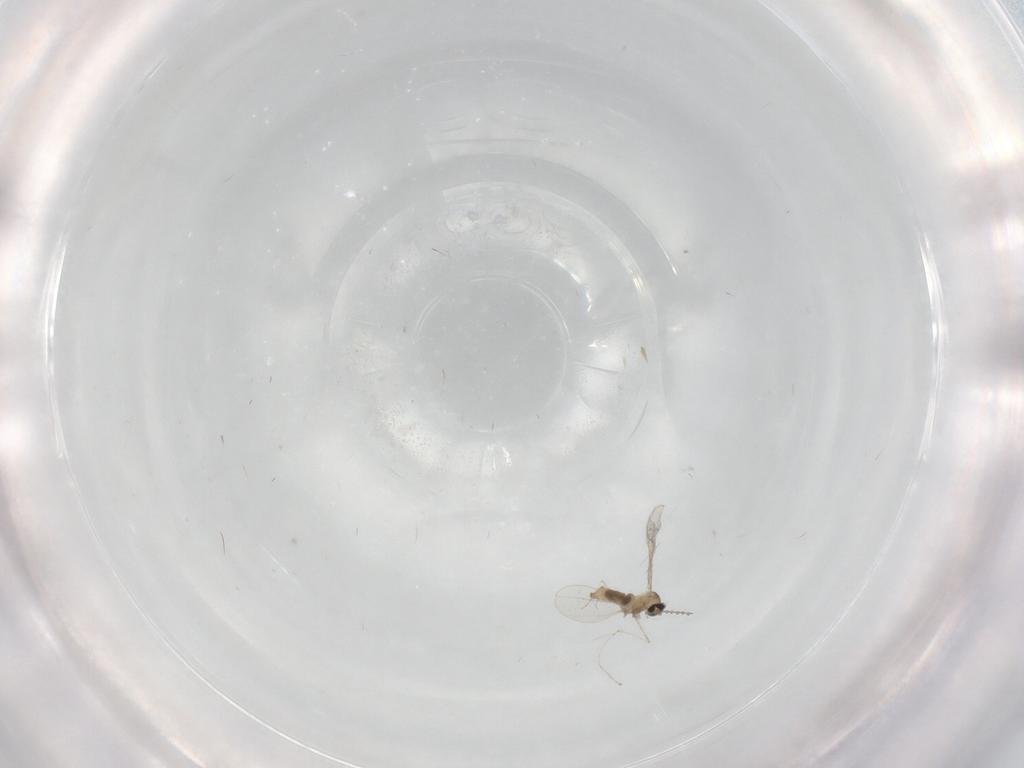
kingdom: Animalia
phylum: Arthropoda
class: Insecta
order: Diptera
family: Cecidomyiidae
